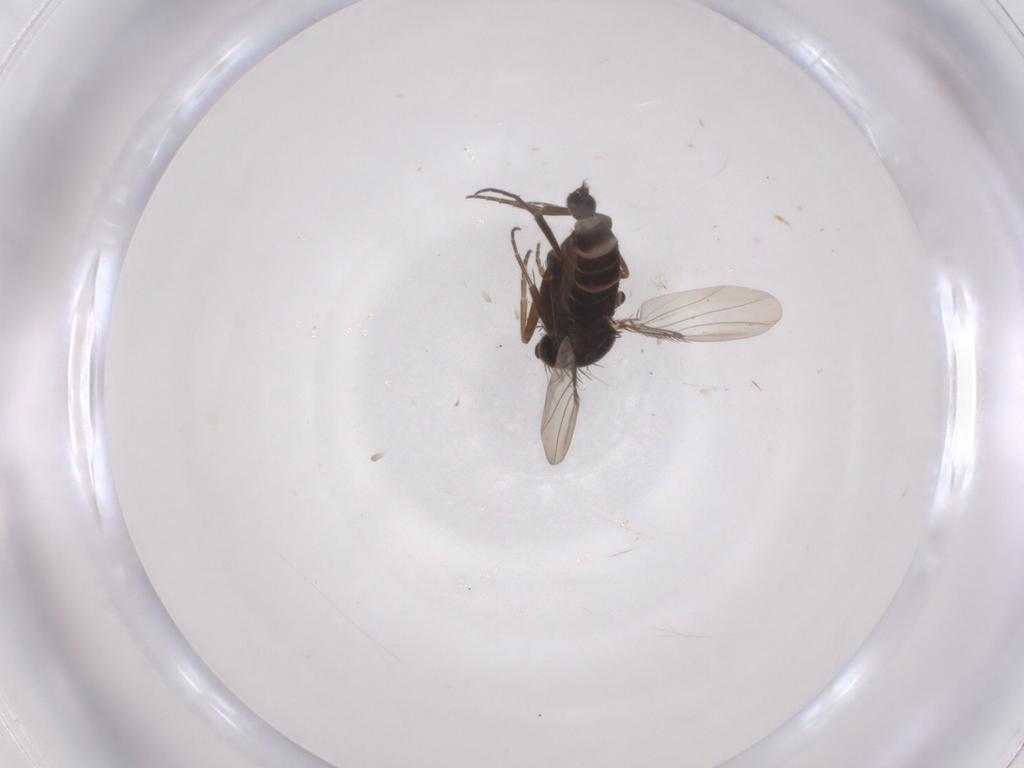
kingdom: Animalia
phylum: Arthropoda
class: Insecta
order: Diptera
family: Phoridae
